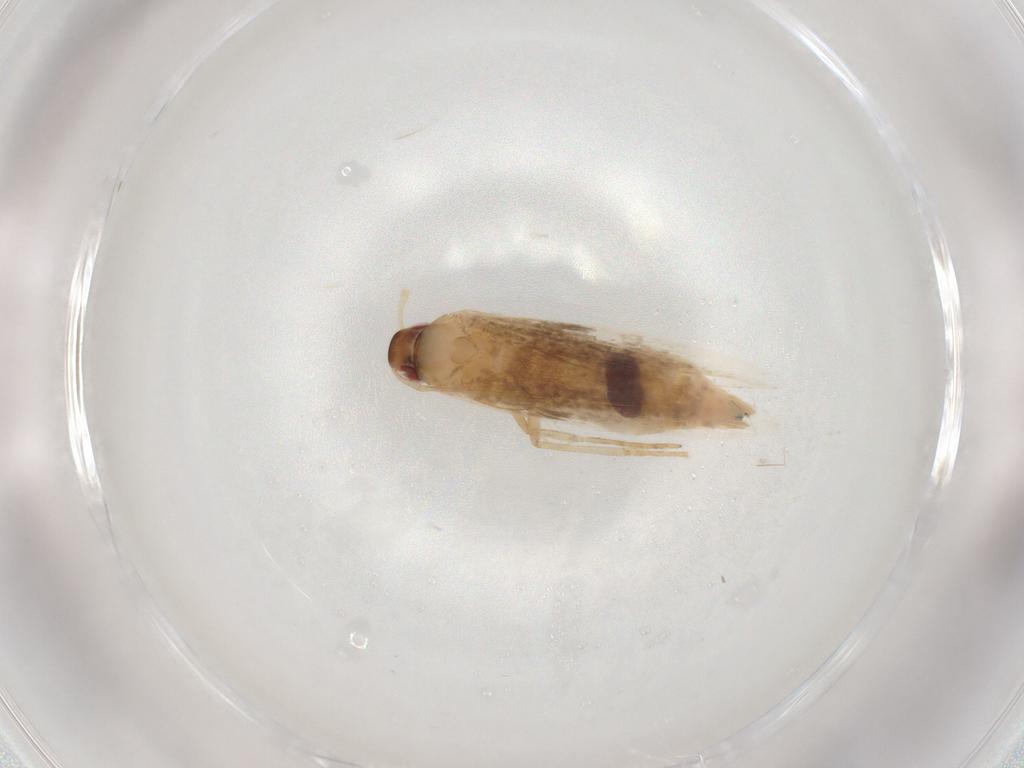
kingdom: Animalia
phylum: Arthropoda
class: Insecta
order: Lepidoptera
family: Cosmopterigidae
